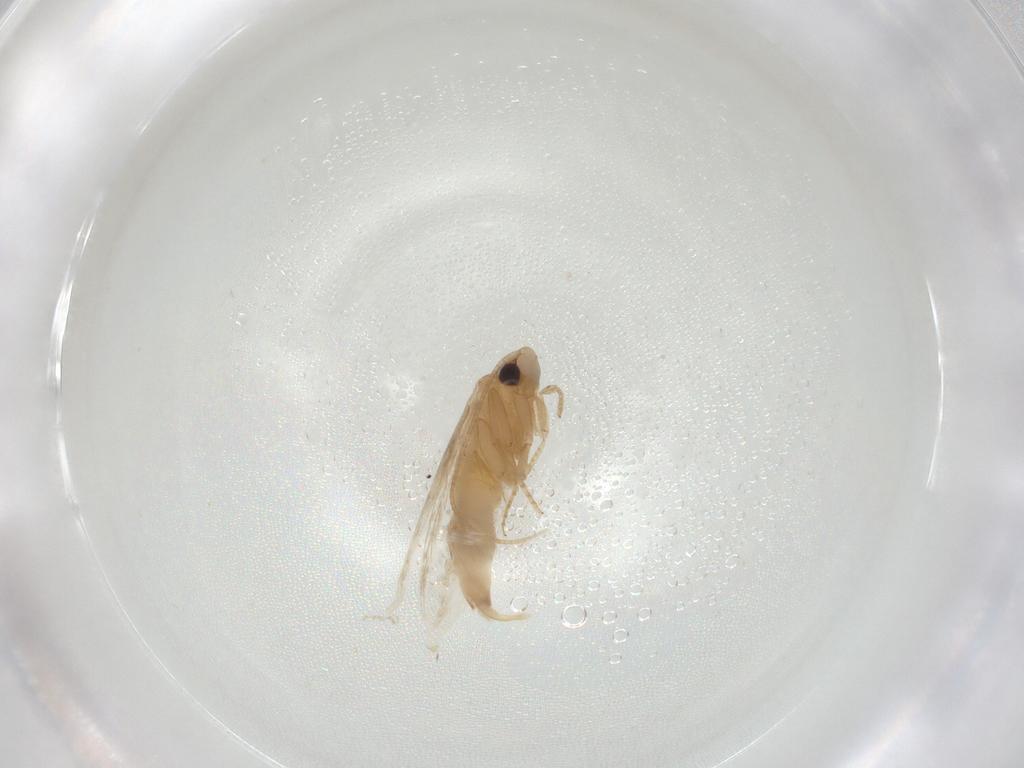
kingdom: Animalia
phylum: Arthropoda
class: Insecta
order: Lepidoptera
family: Tineidae
